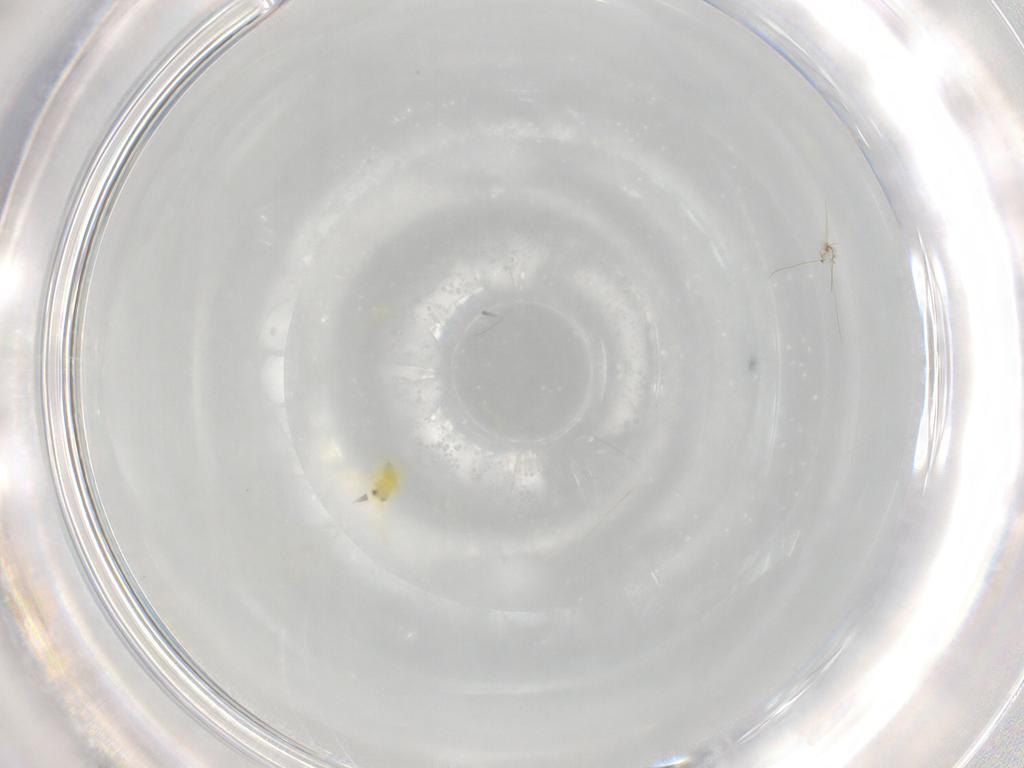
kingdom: Animalia
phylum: Arthropoda
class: Insecta
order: Hemiptera
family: Aleyrodidae
